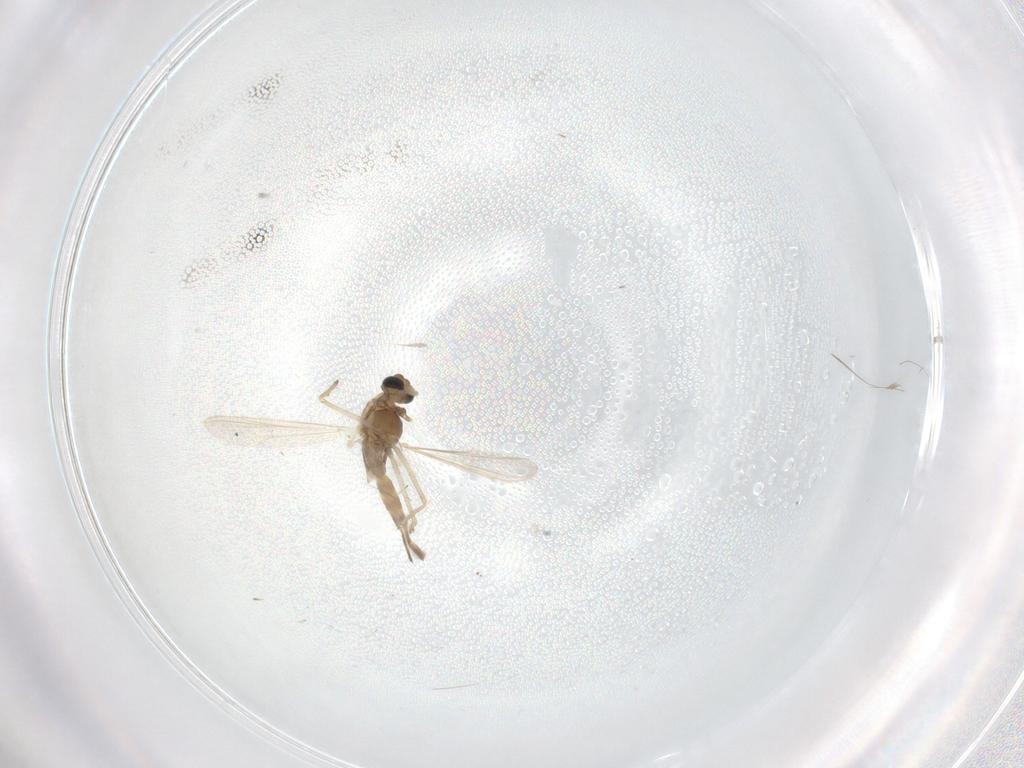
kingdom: Animalia
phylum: Arthropoda
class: Insecta
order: Diptera
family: Chironomidae
